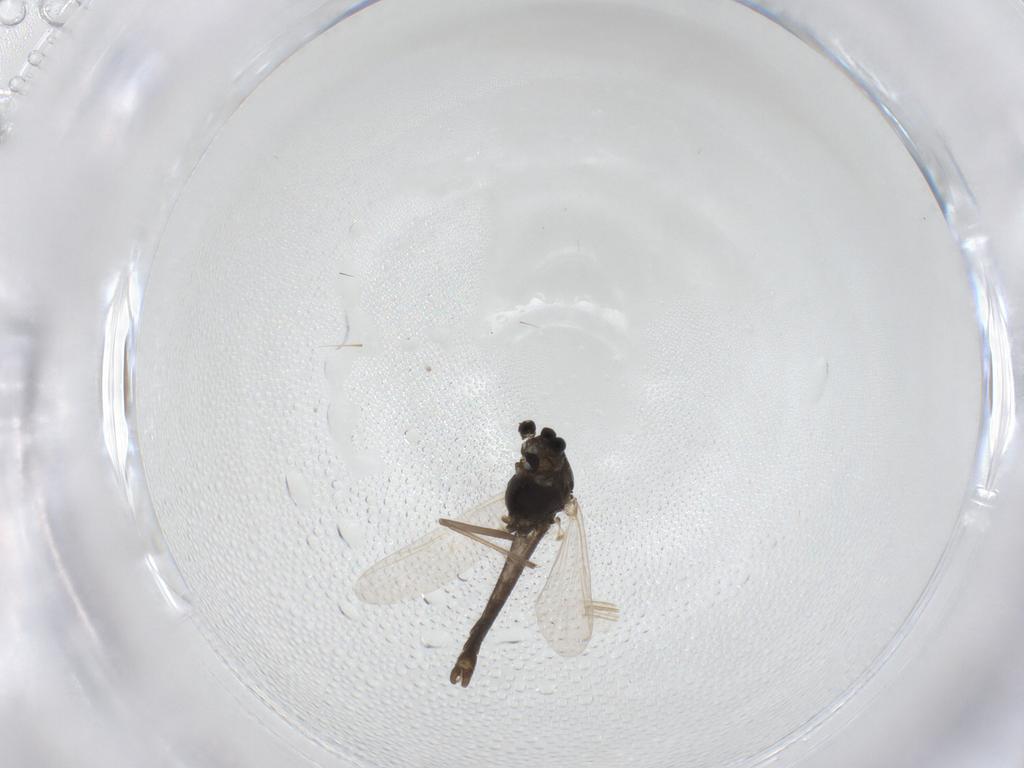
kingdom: Animalia
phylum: Arthropoda
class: Insecta
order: Diptera
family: Chironomidae
